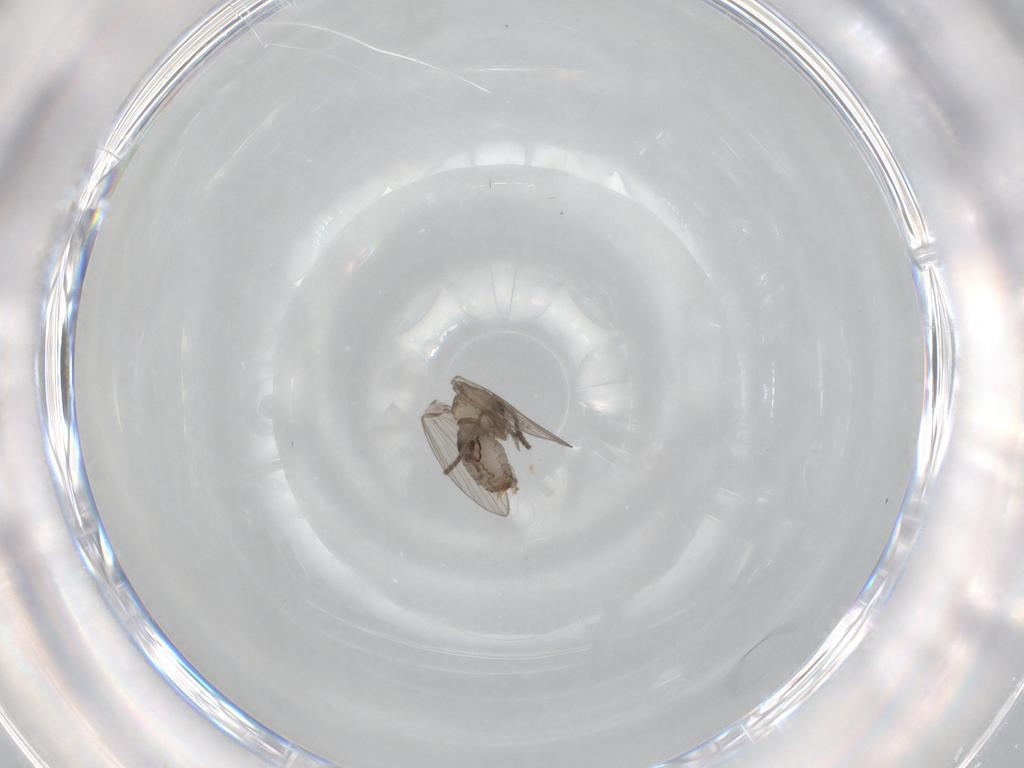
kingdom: Animalia
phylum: Arthropoda
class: Insecta
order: Diptera
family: Psychodidae
